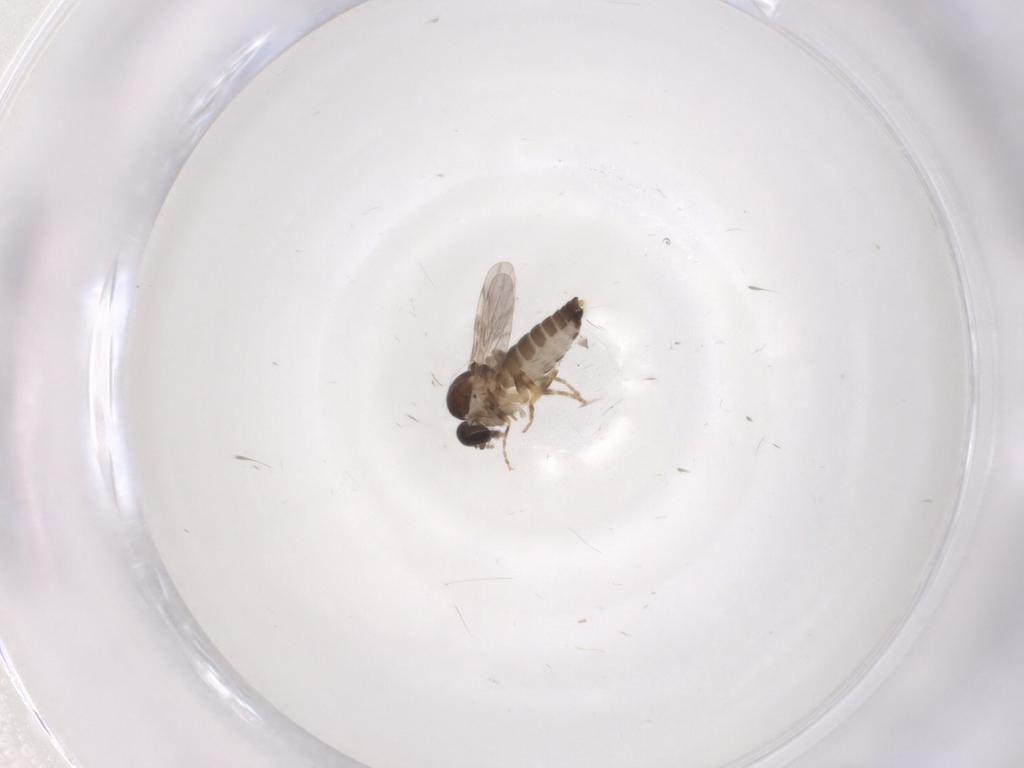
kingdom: Animalia
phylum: Arthropoda
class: Insecta
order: Diptera
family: Ceratopogonidae
